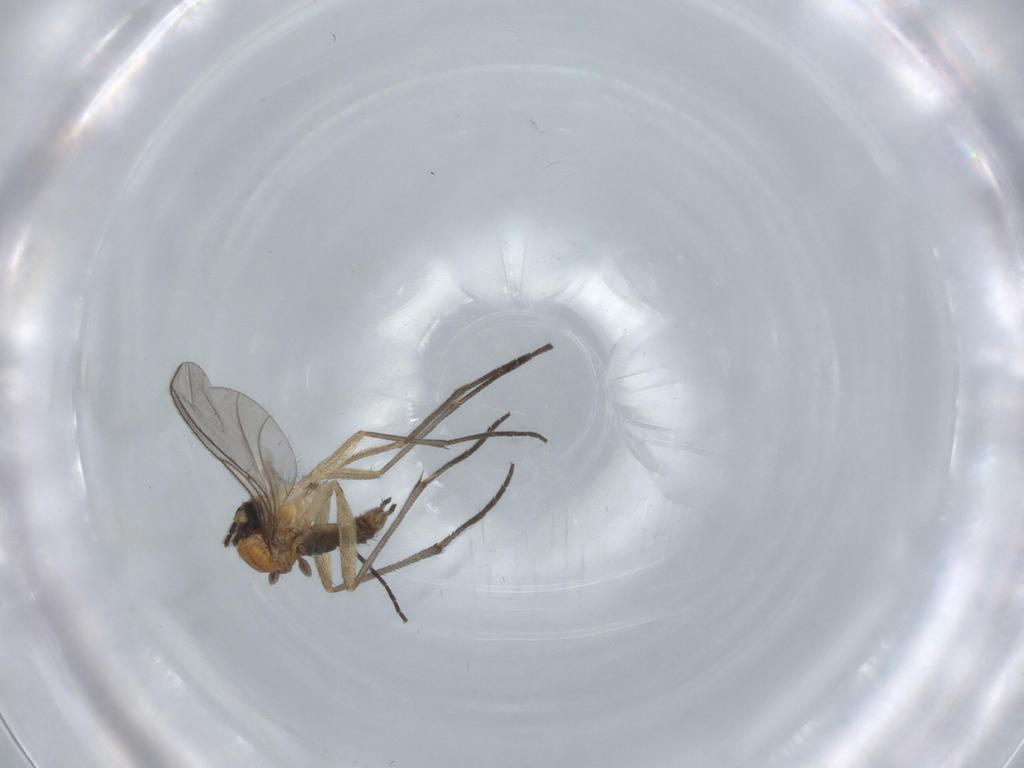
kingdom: Animalia
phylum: Arthropoda
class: Insecta
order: Diptera
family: Sciaridae
